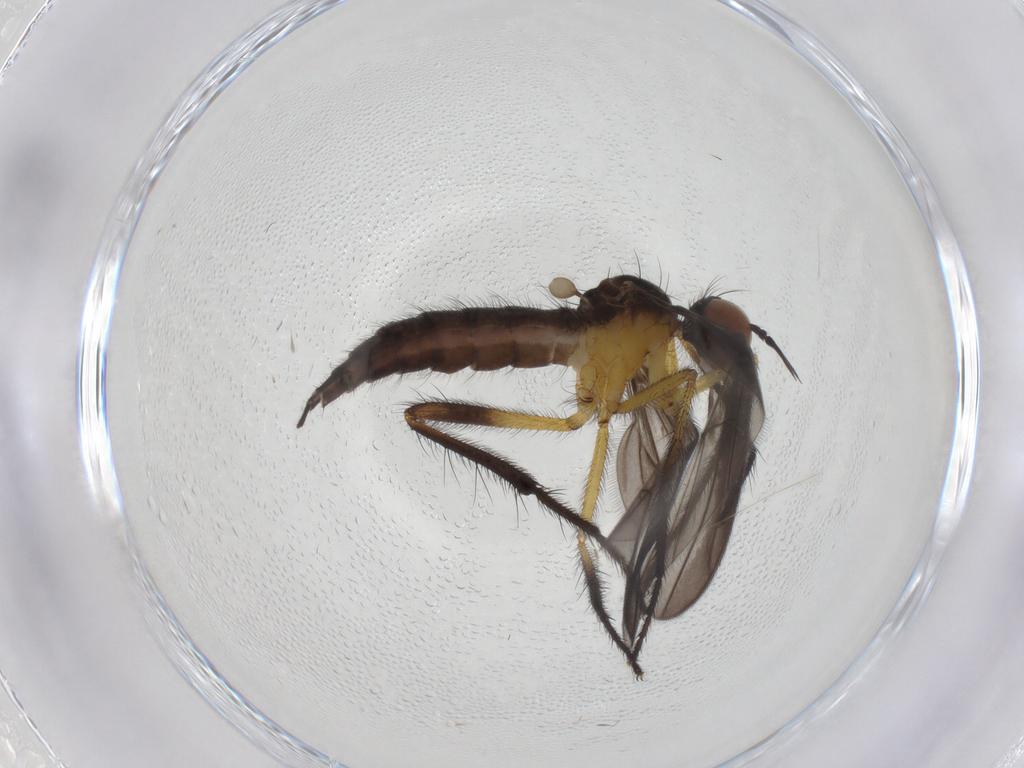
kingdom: Animalia
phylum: Arthropoda
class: Insecta
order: Diptera
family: Empididae
